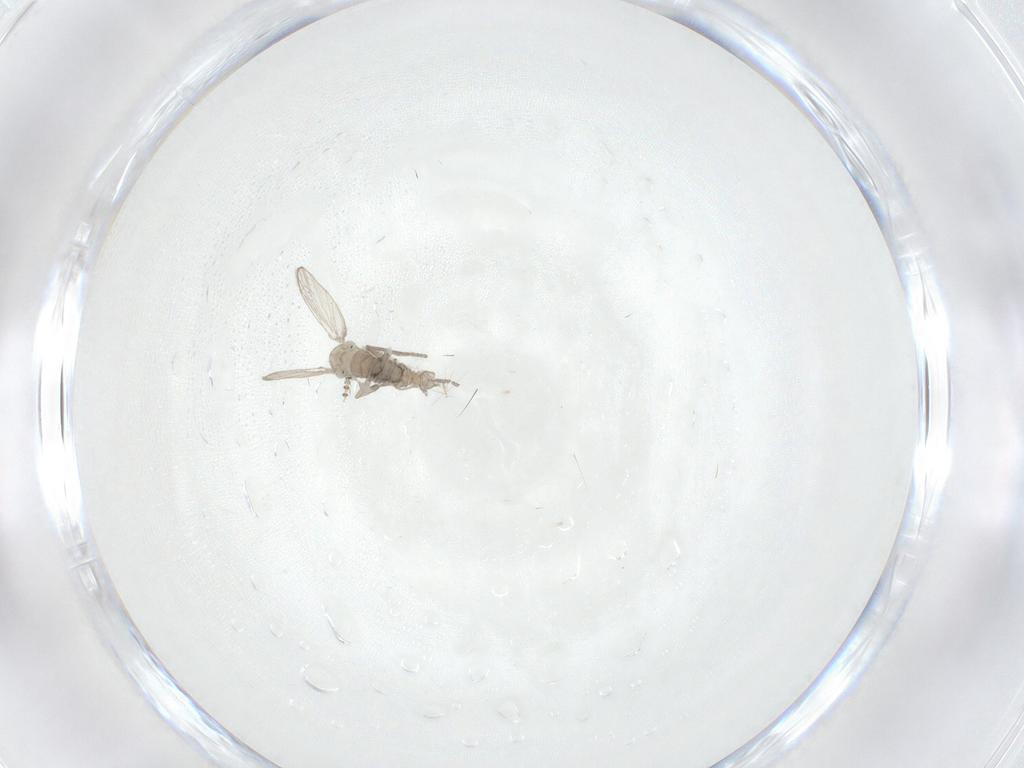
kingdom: Animalia
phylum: Arthropoda
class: Insecta
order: Diptera
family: Psychodidae
